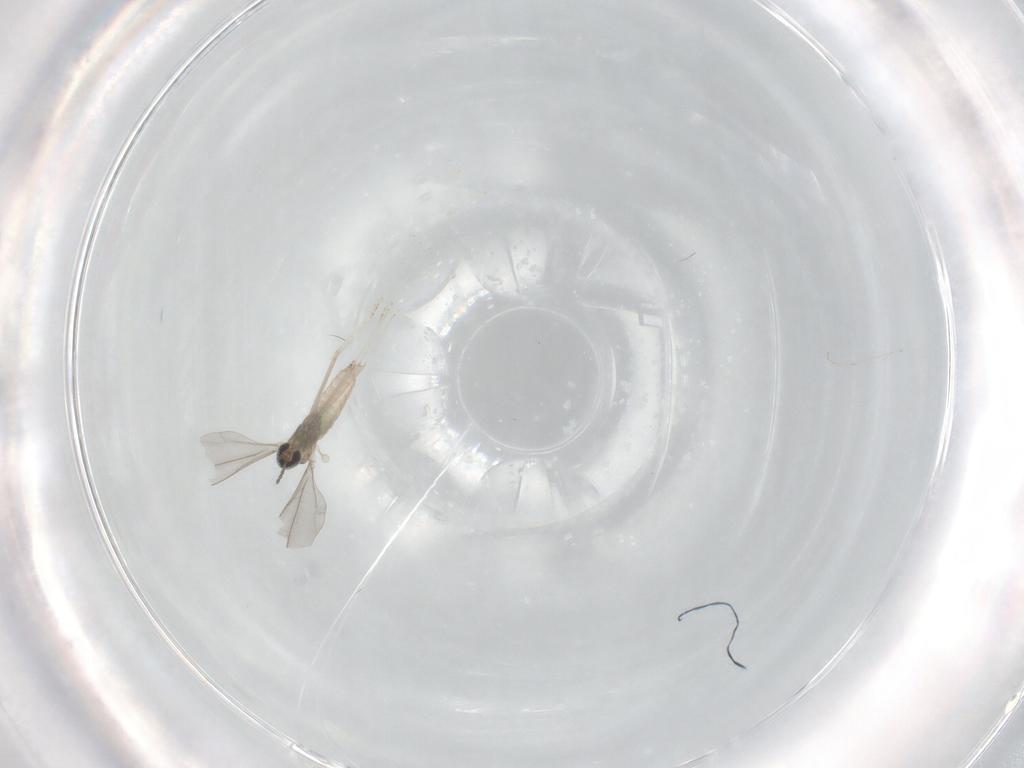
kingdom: Animalia
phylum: Arthropoda
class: Insecta
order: Diptera
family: Cecidomyiidae
